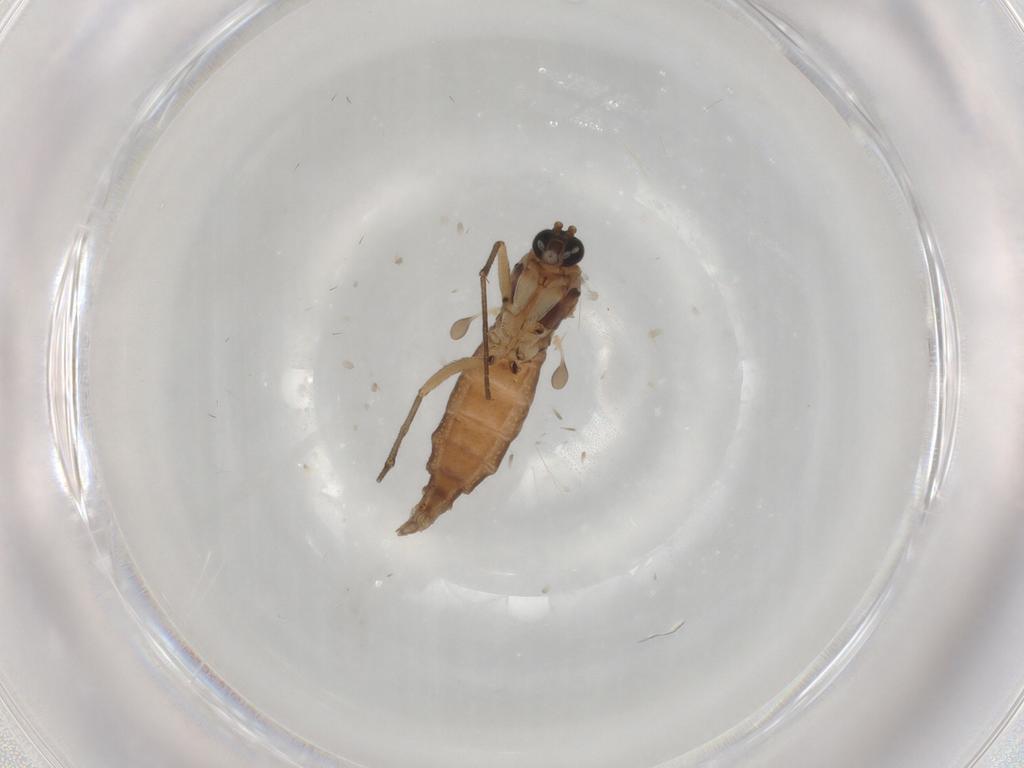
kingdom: Animalia
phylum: Arthropoda
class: Insecta
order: Diptera
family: Sciaridae
